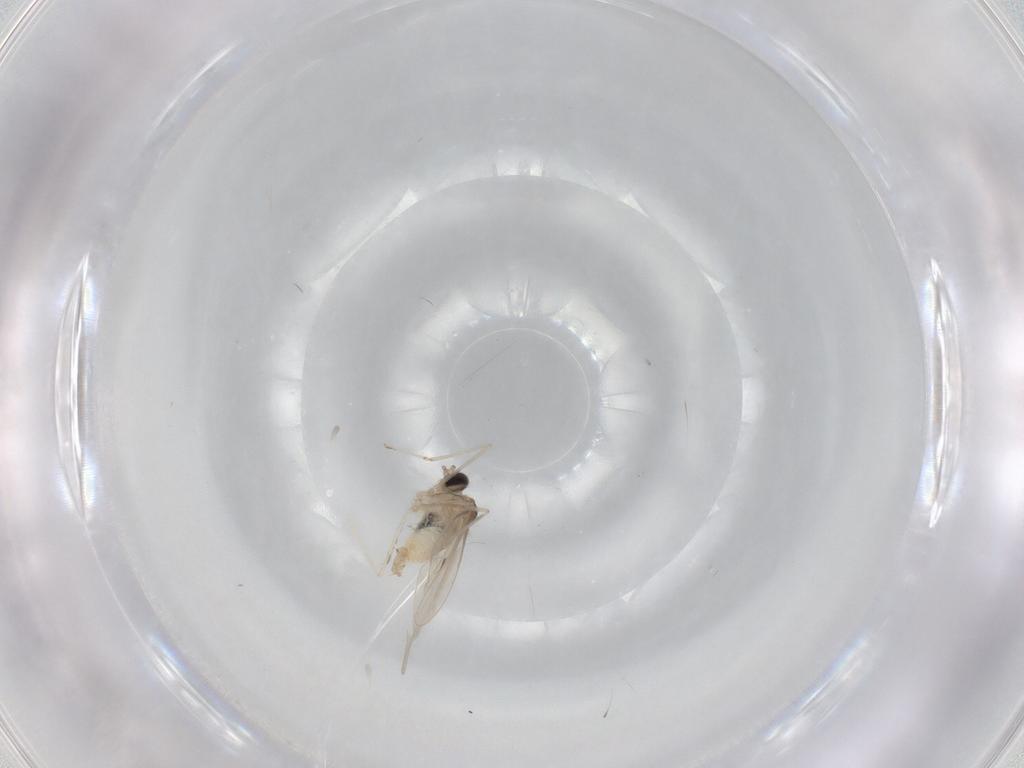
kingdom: Animalia
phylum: Arthropoda
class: Insecta
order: Diptera
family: Cecidomyiidae
